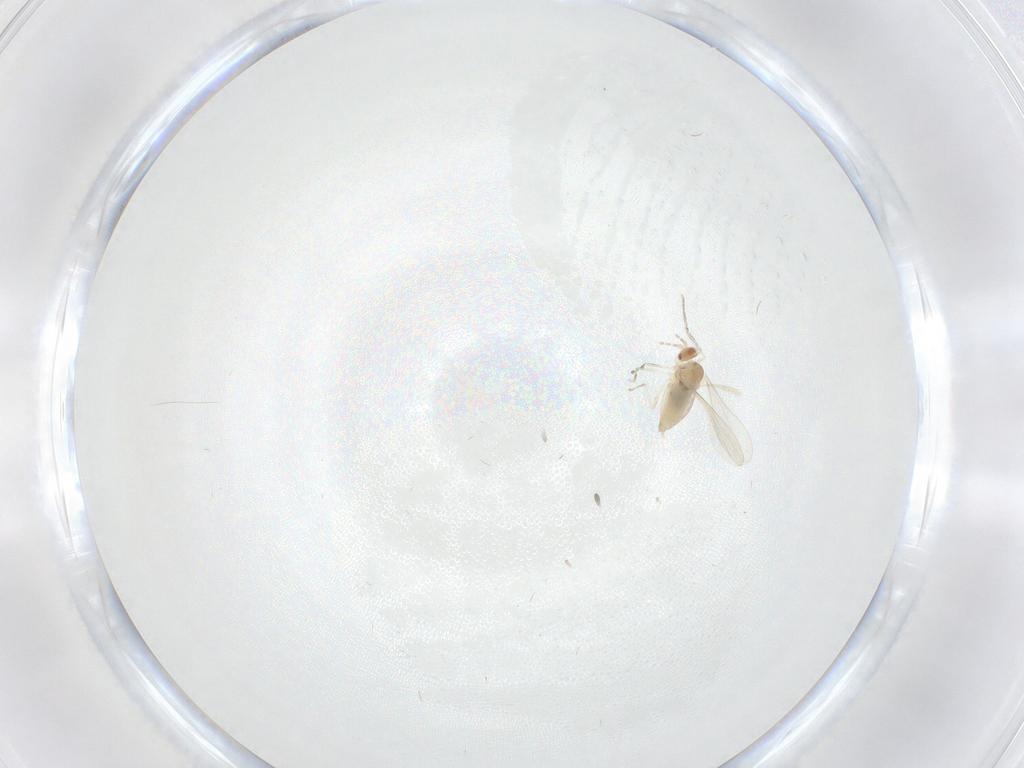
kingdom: Animalia
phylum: Arthropoda
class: Insecta
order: Diptera
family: Cecidomyiidae
